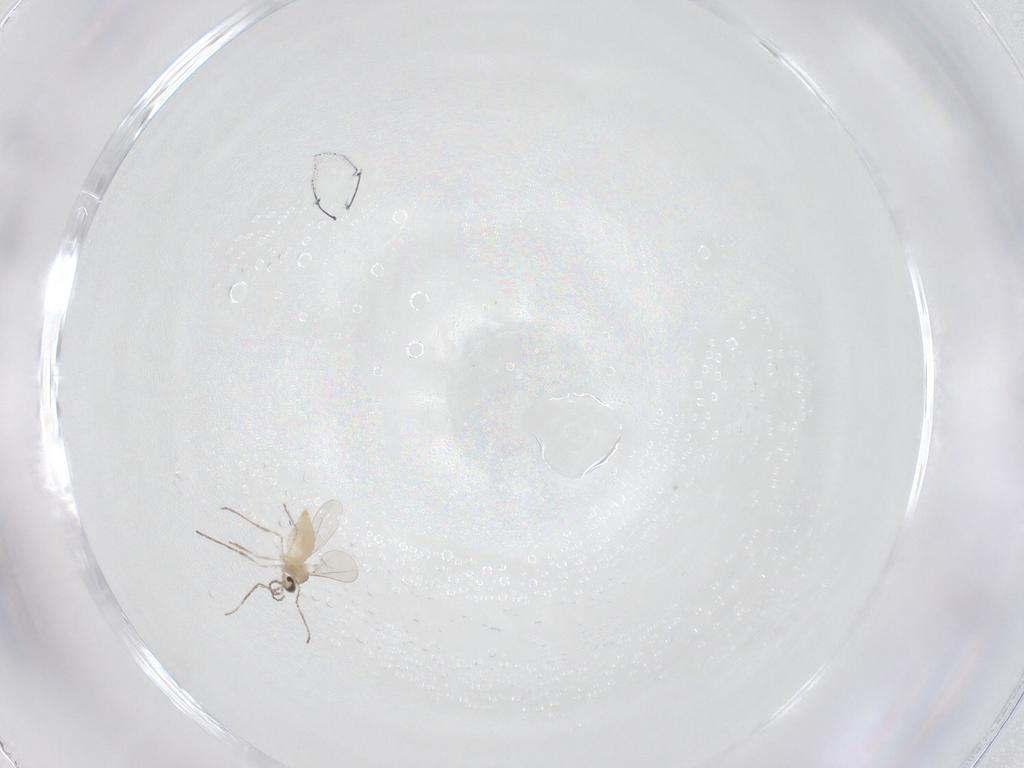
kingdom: Animalia
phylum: Arthropoda
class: Insecta
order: Diptera
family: Cecidomyiidae
